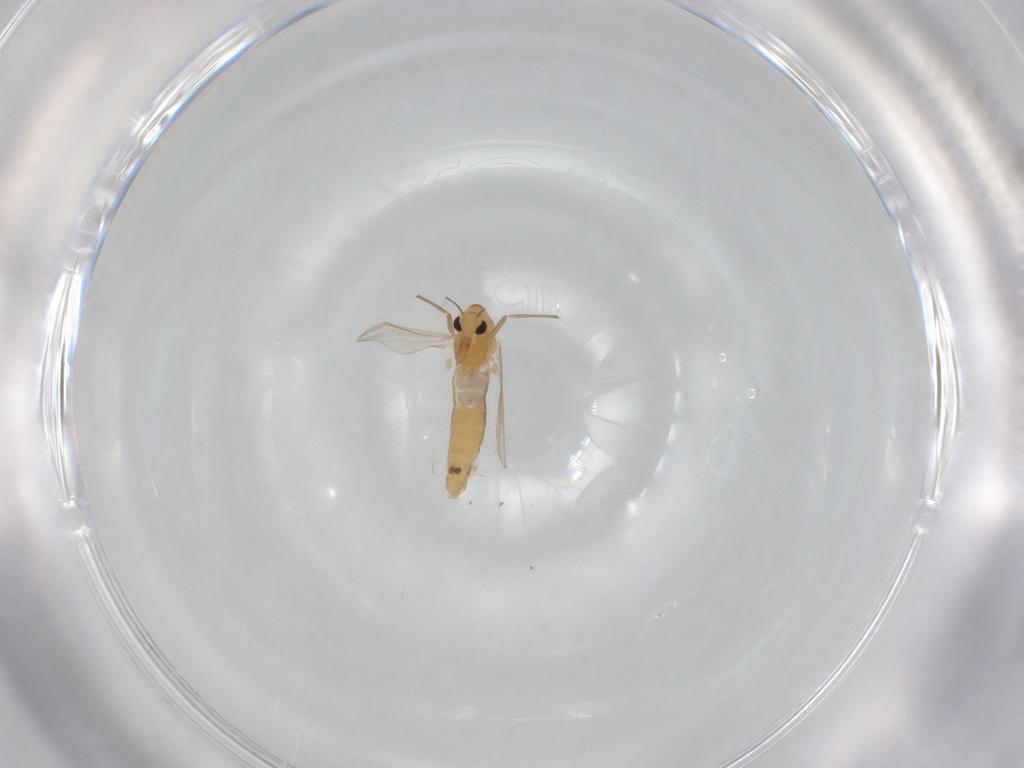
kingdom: Animalia
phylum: Arthropoda
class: Insecta
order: Diptera
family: Chironomidae
